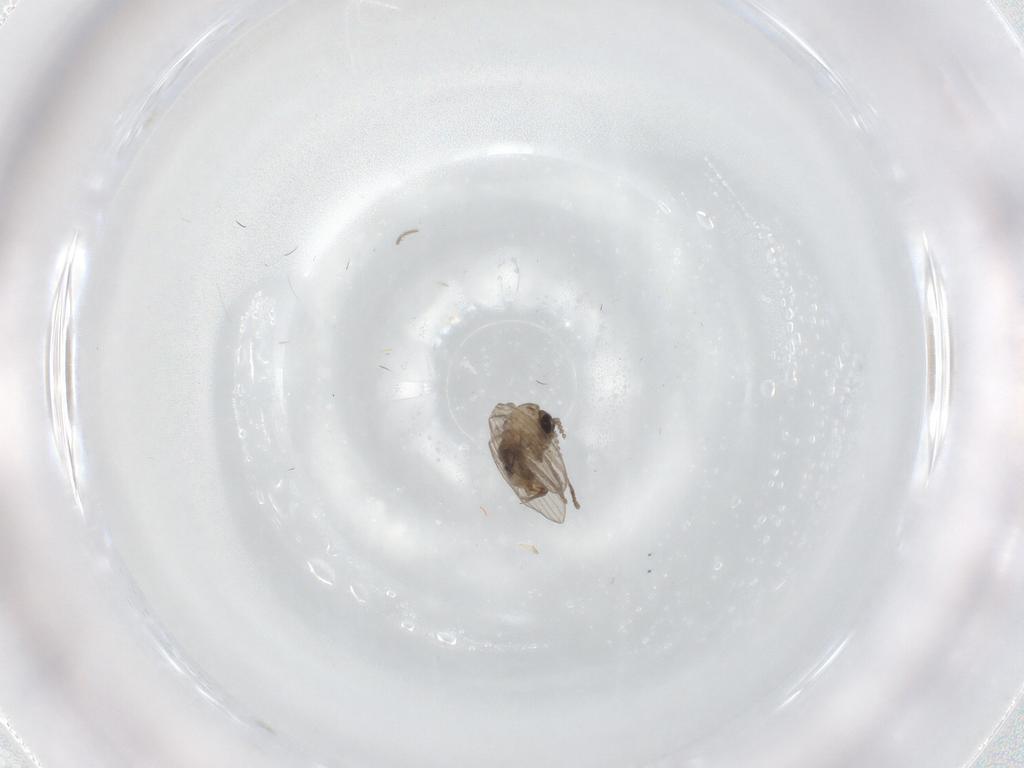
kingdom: Animalia
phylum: Arthropoda
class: Insecta
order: Diptera
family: Psychodidae
